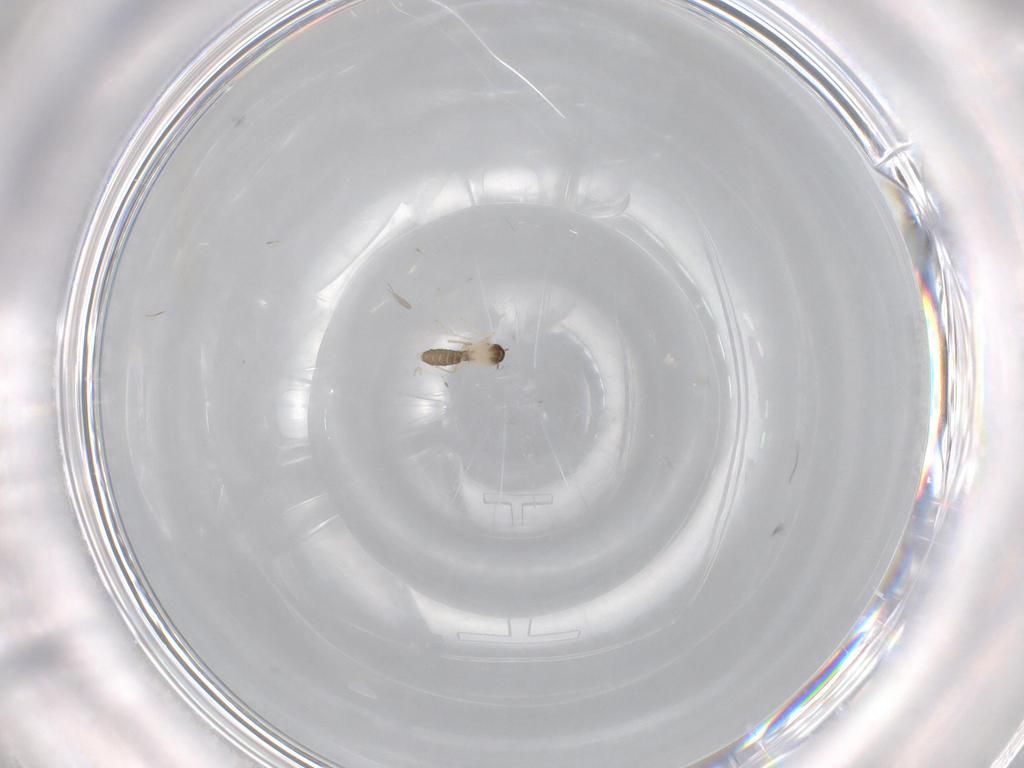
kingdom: Animalia
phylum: Arthropoda
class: Insecta
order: Diptera
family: Cecidomyiidae
